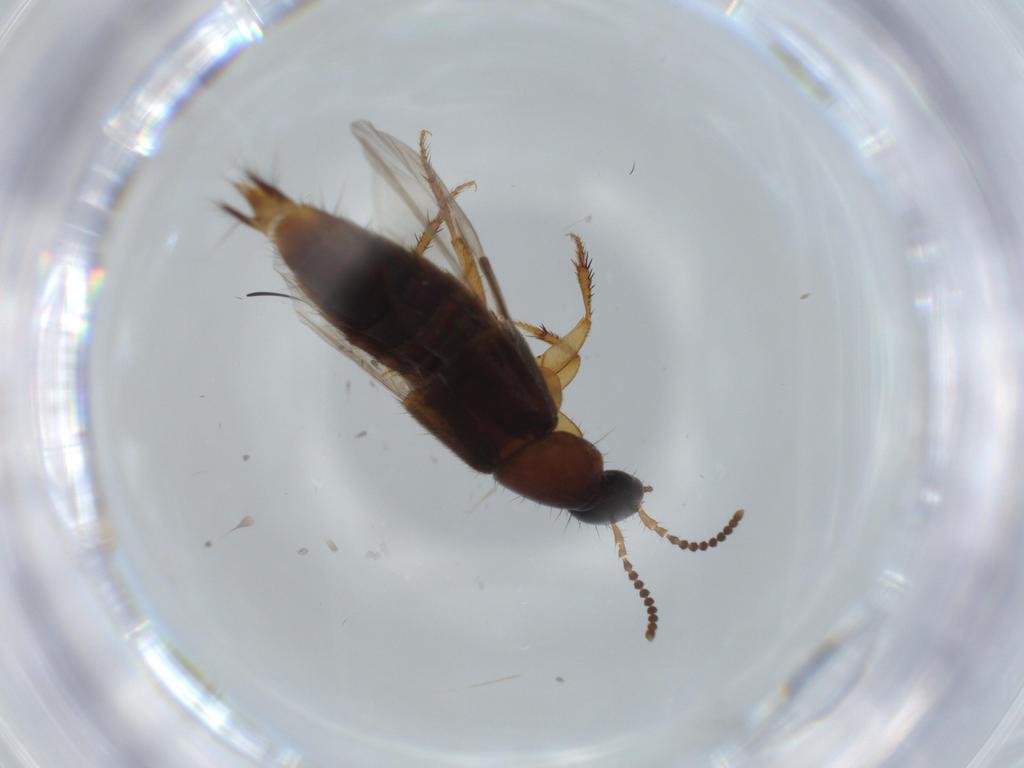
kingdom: Animalia
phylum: Arthropoda
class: Insecta
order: Coleoptera
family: Staphylinidae
